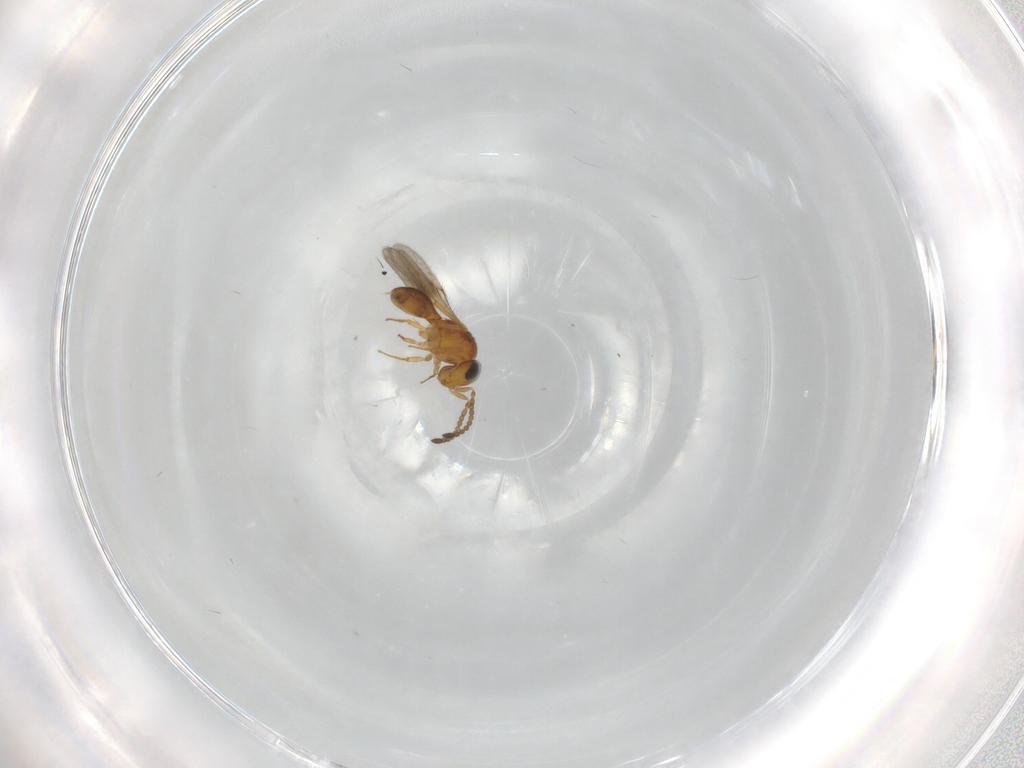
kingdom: Animalia
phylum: Arthropoda
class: Insecta
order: Hymenoptera
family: Scelionidae
